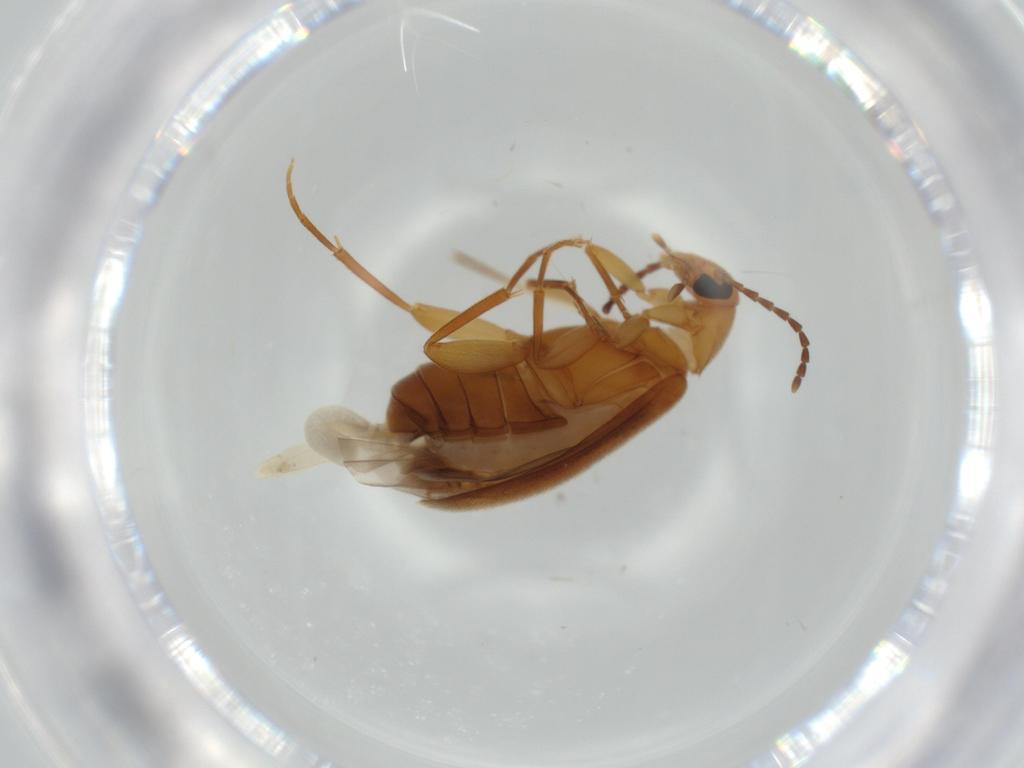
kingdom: Animalia
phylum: Arthropoda
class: Insecta
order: Coleoptera
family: Scraptiidae
